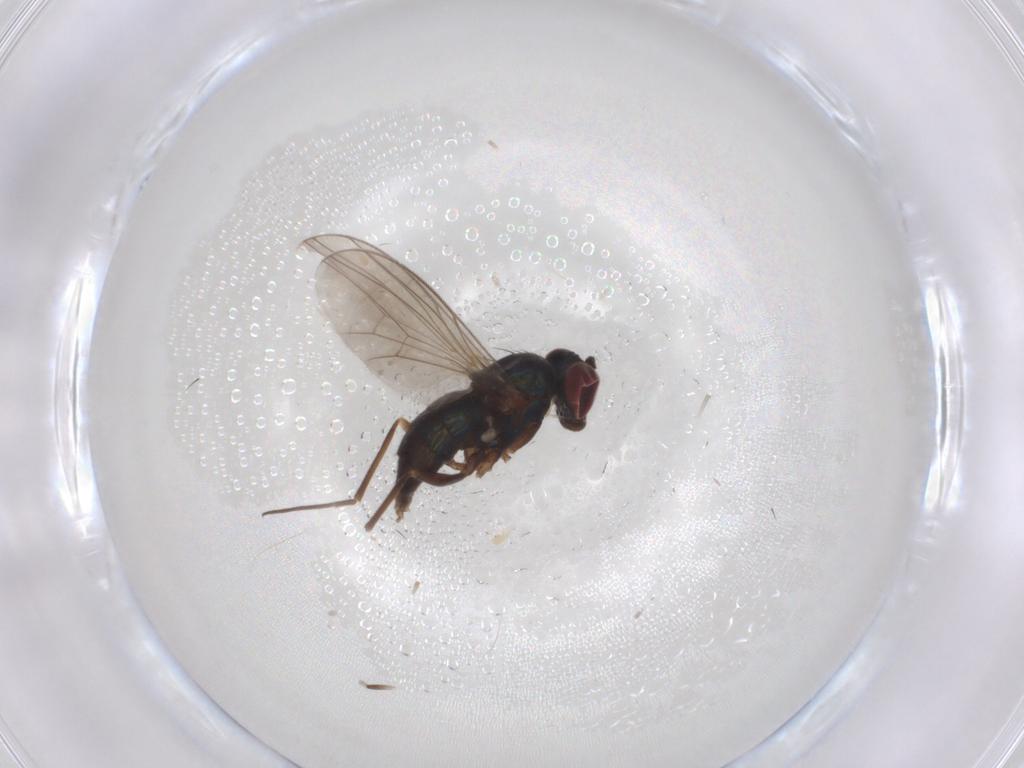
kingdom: Animalia
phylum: Arthropoda
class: Insecta
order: Diptera
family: Dolichopodidae
